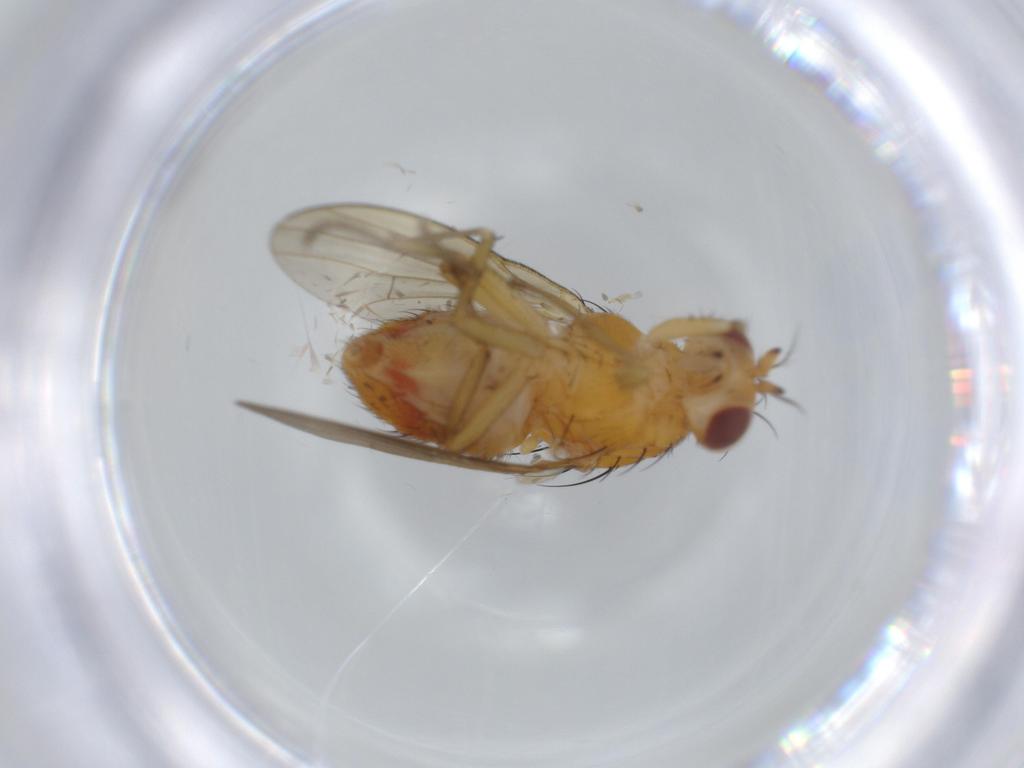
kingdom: Animalia
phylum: Arthropoda
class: Insecta
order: Diptera
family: Lauxaniidae
